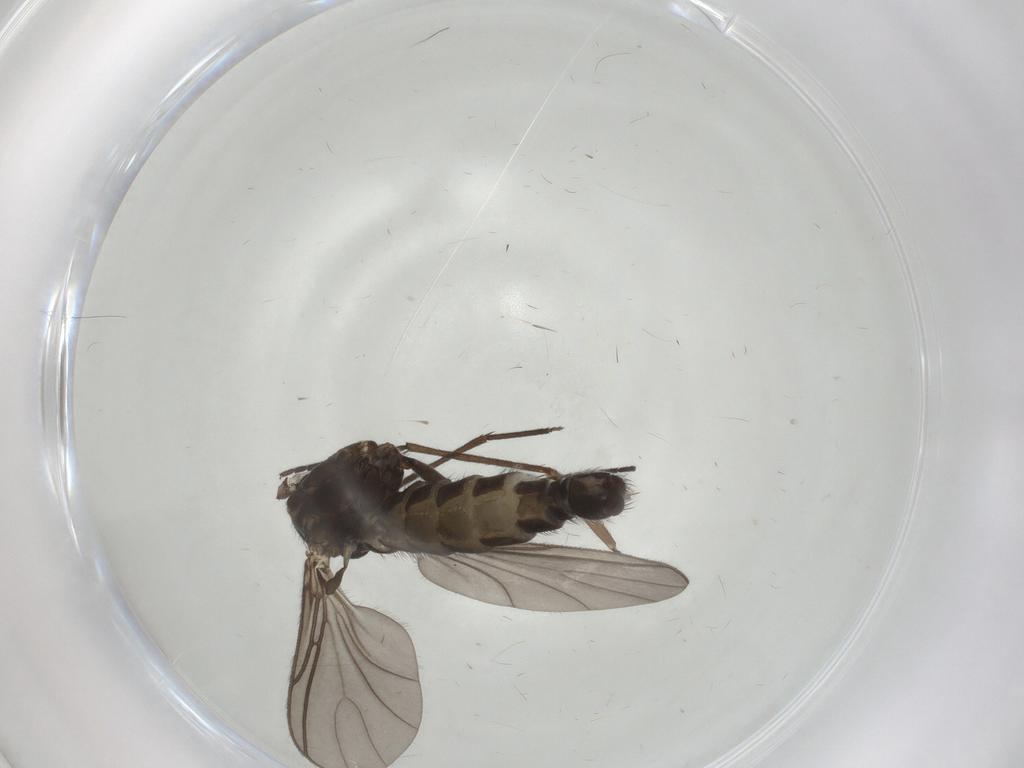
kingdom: Animalia
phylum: Arthropoda
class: Insecta
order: Diptera
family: Sciaridae
